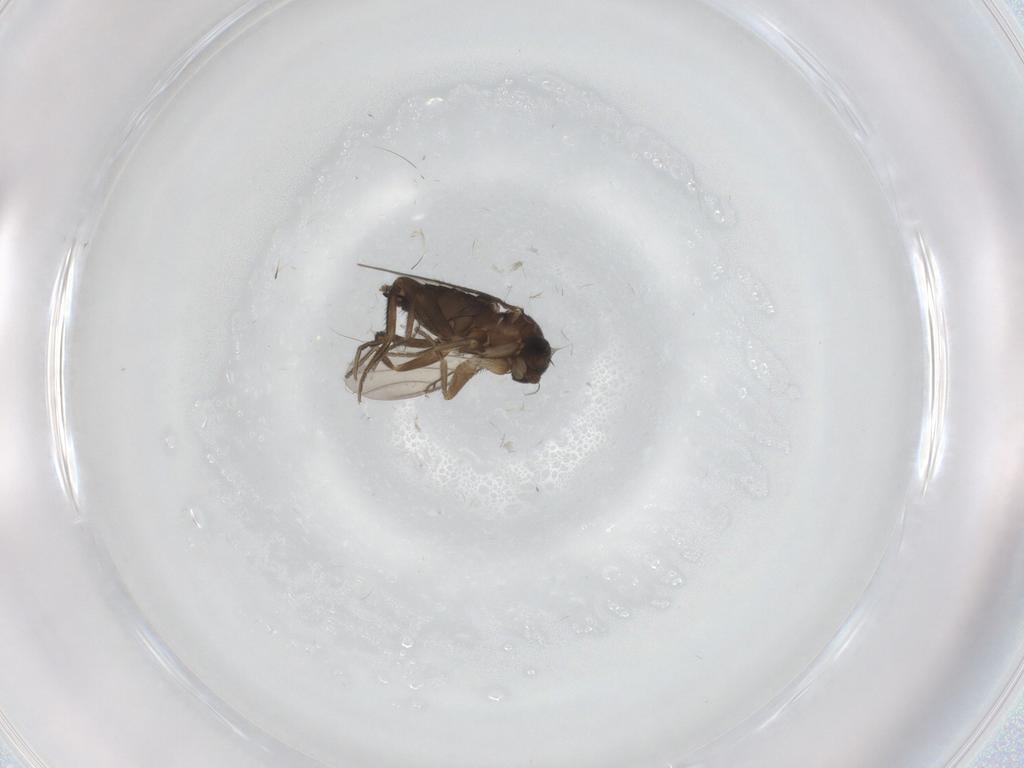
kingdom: Animalia
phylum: Arthropoda
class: Insecta
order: Diptera
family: Phoridae
